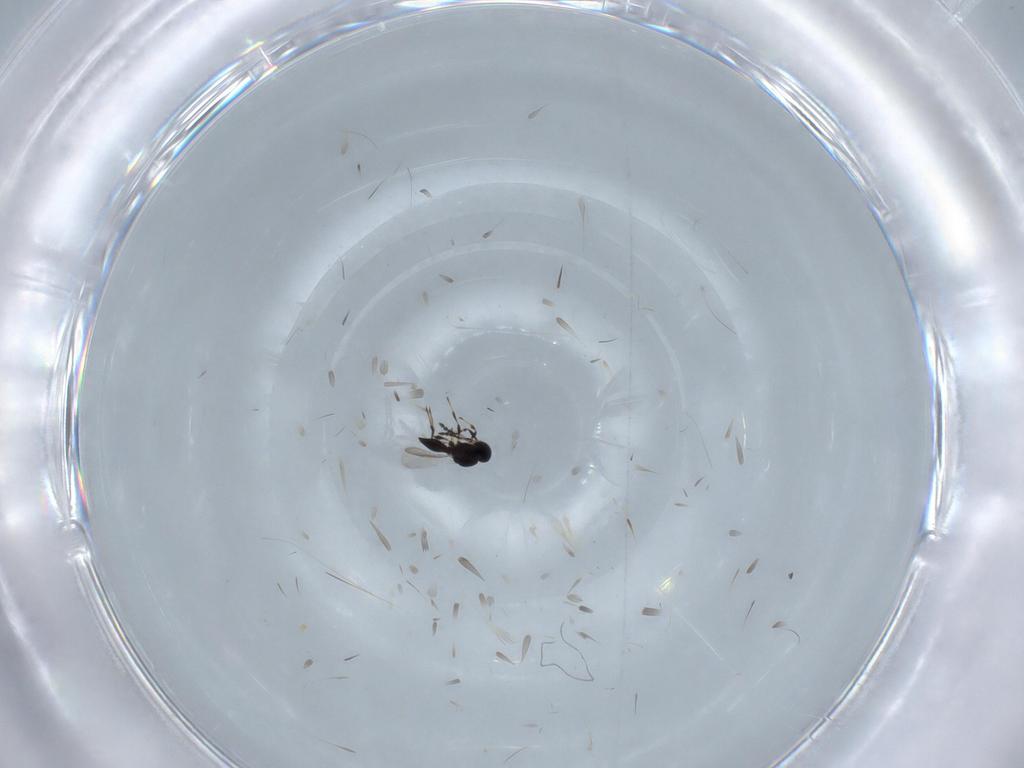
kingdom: Animalia
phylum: Arthropoda
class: Insecta
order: Hymenoptera
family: Platygastridae
